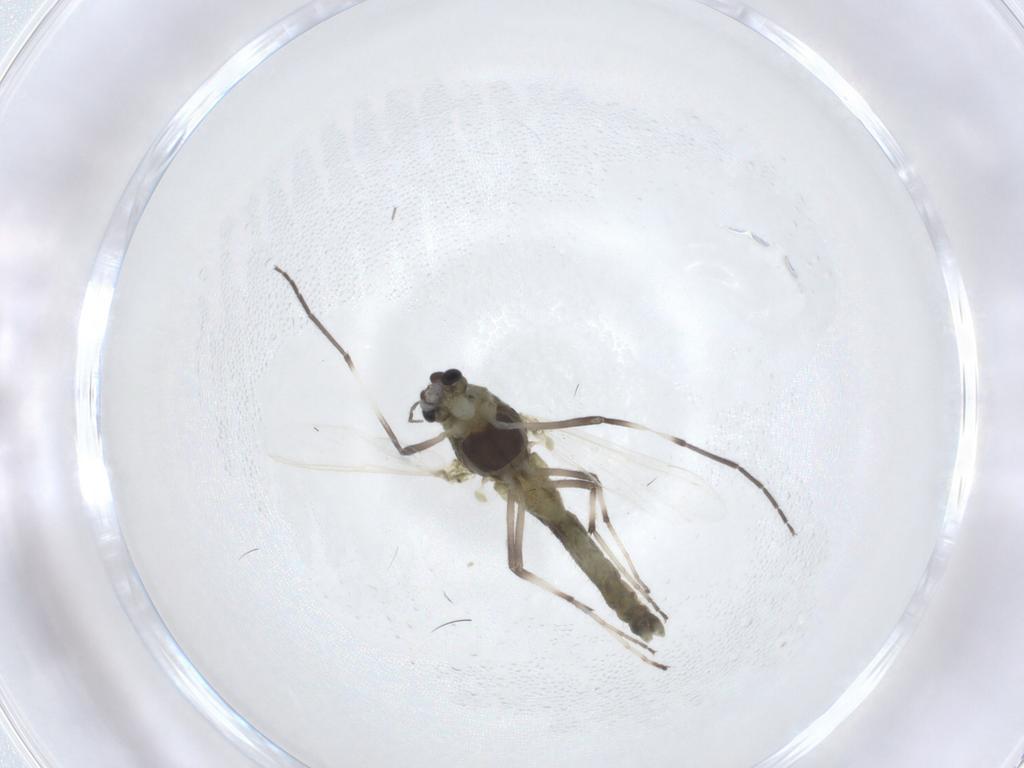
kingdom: Animalia
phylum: Arthropoda
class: Insecta
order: Diptera
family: Chironomidae
